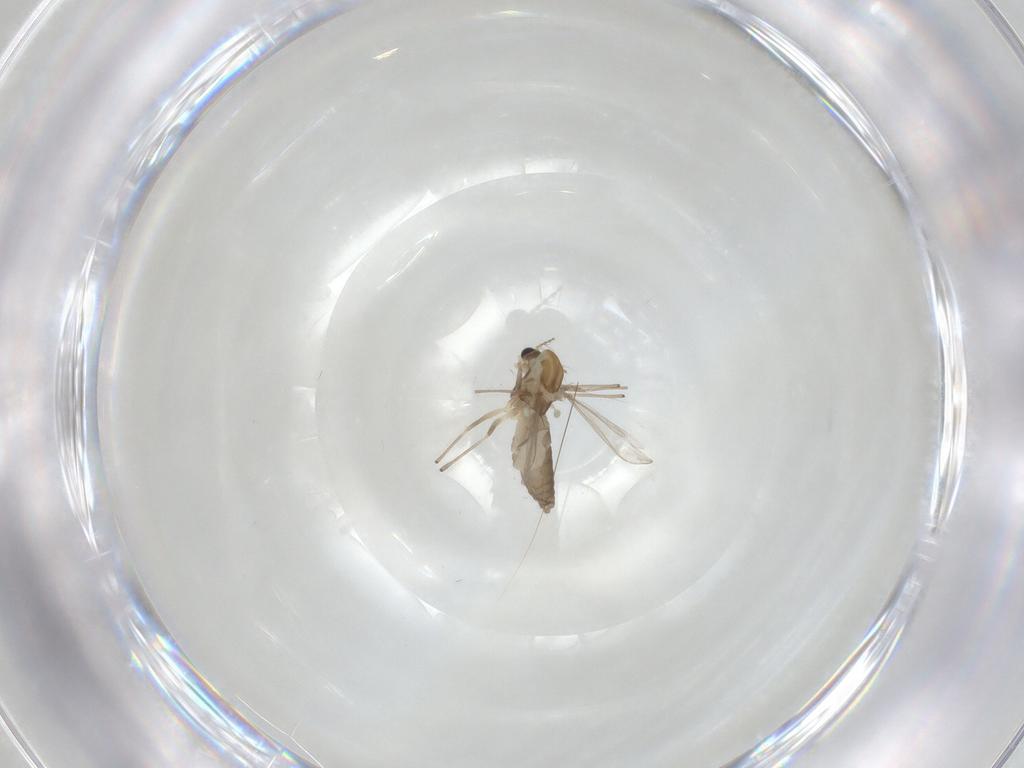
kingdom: Animalia
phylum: Arthropoda
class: Insecta
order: Diptera
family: Chironomidae
